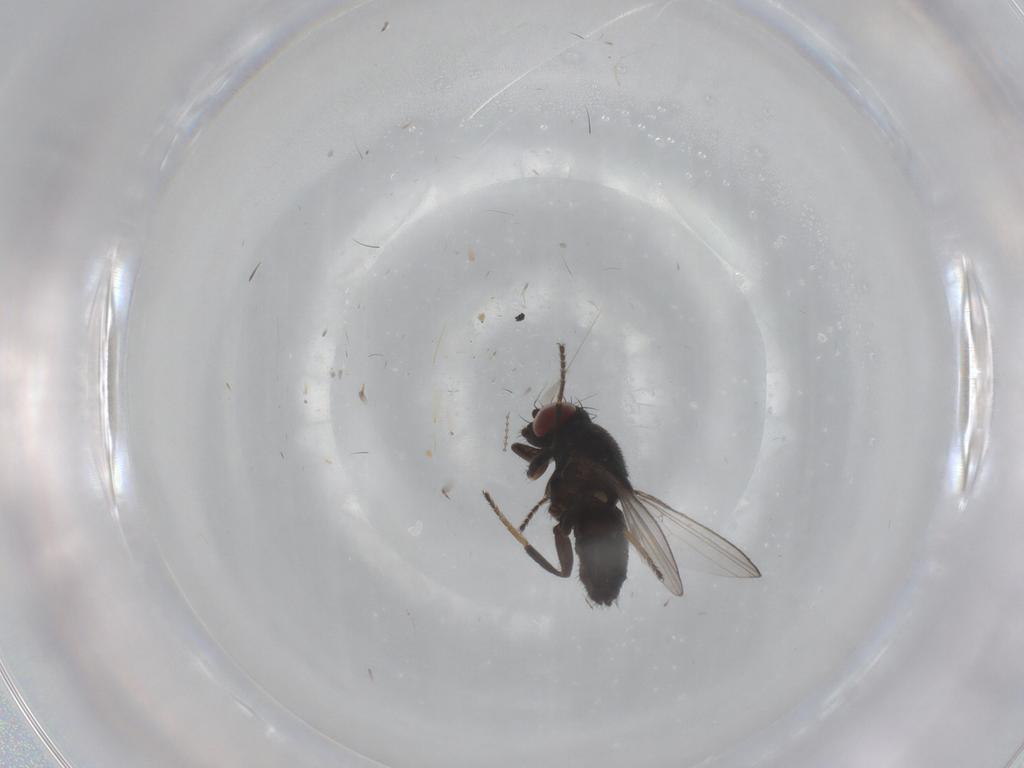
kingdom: Animalia
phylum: Arthropoda
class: Insecta
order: Diptera
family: Milichiidae
